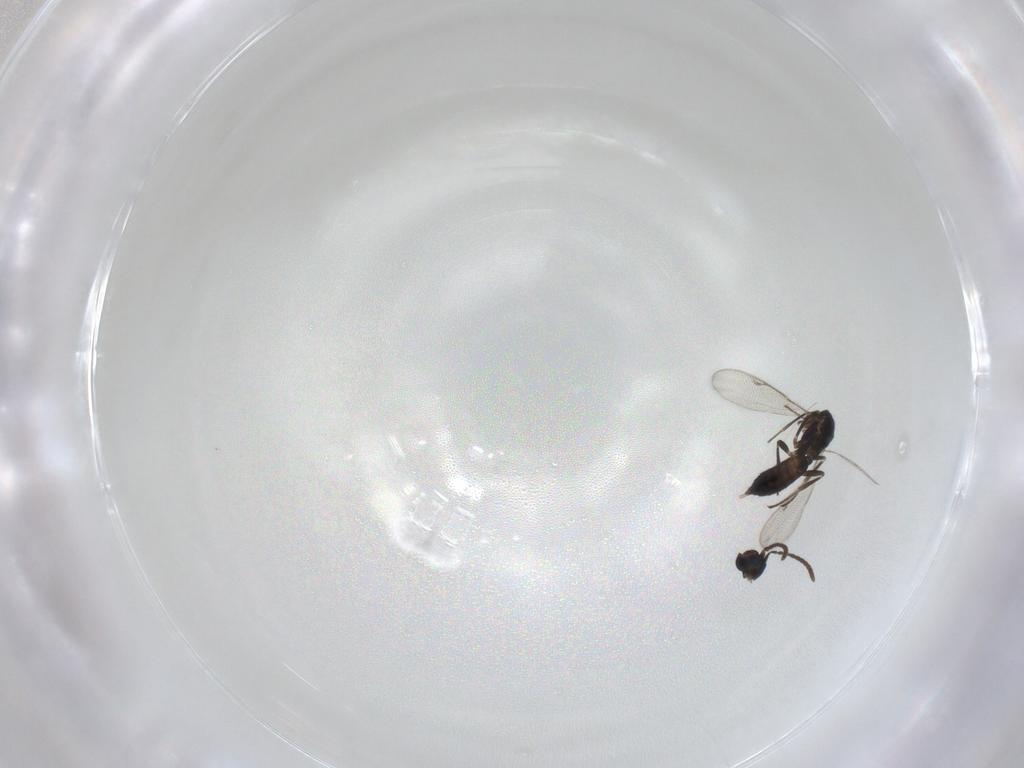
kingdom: Animalia
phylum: Arthropoda
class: Insecta
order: Hymenoptera
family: Eupelmidae
